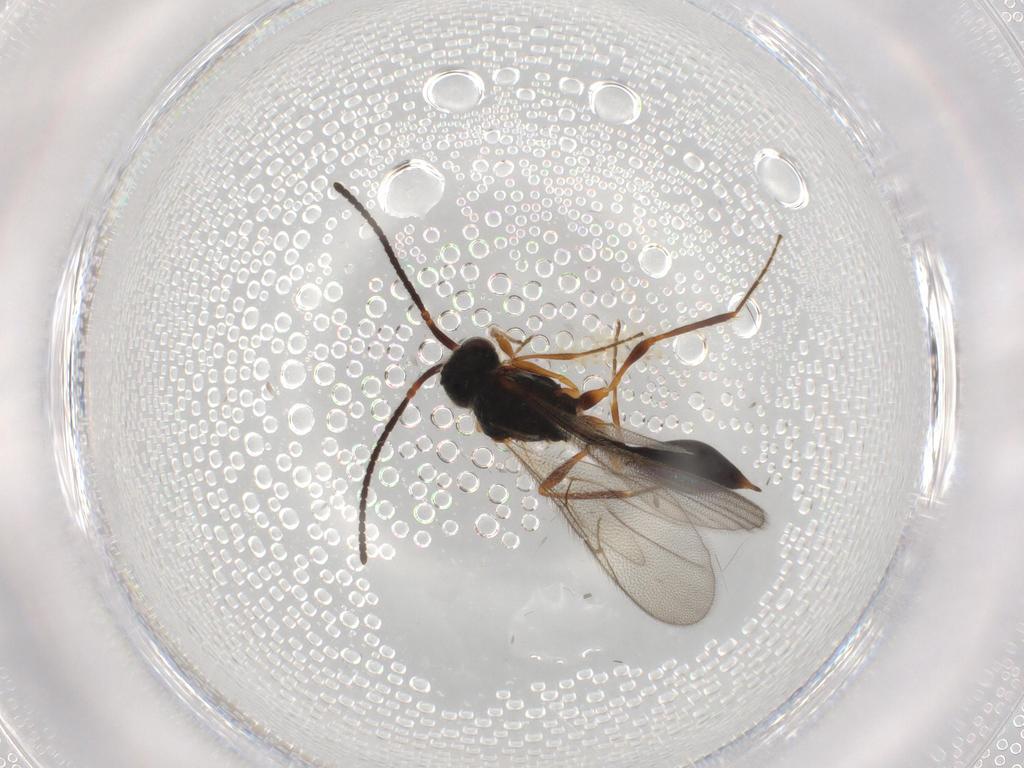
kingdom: Animalia
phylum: Arthropoda
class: Insecta
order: Hymenoptera
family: Diapriidae
